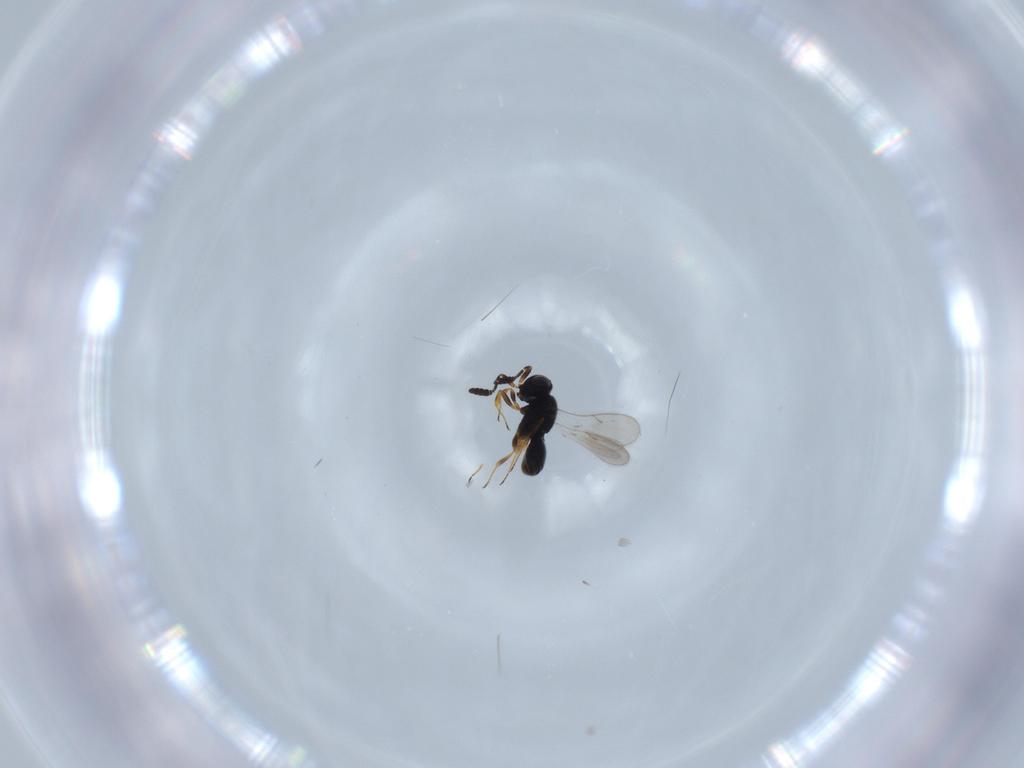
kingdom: Animalia
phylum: Arthropoda
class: Insecta
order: Hymenoptera
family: Scelionidae
